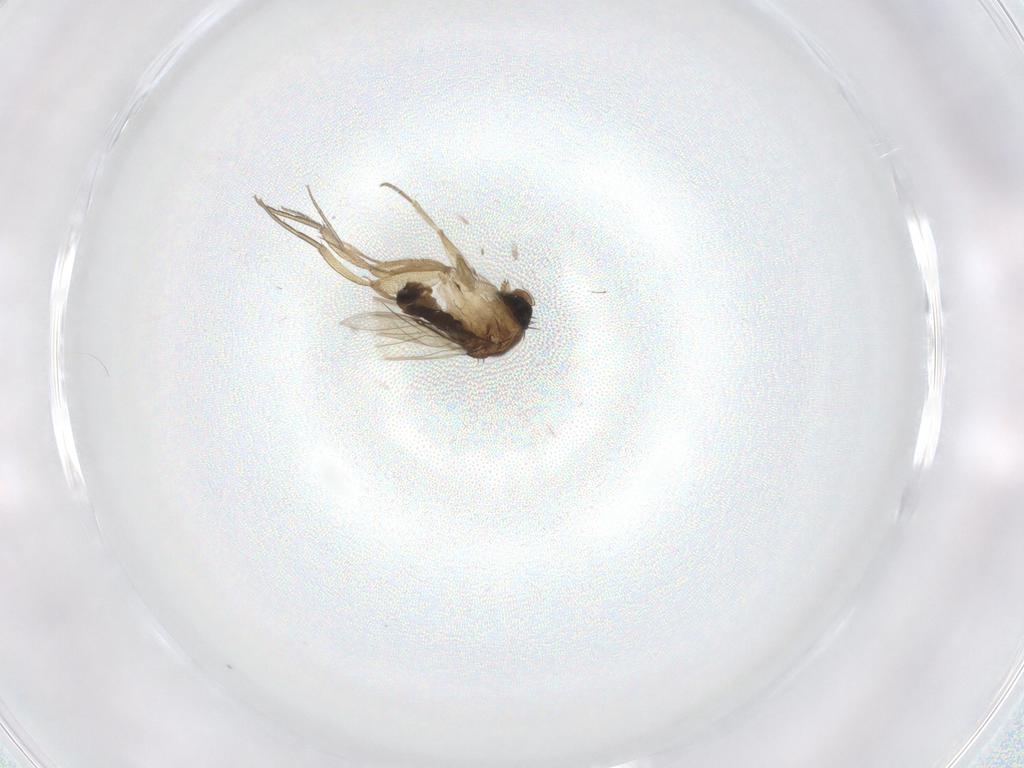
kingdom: Animalia
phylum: Arthropoda
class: Insecta
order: Diptera
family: Phoridae
